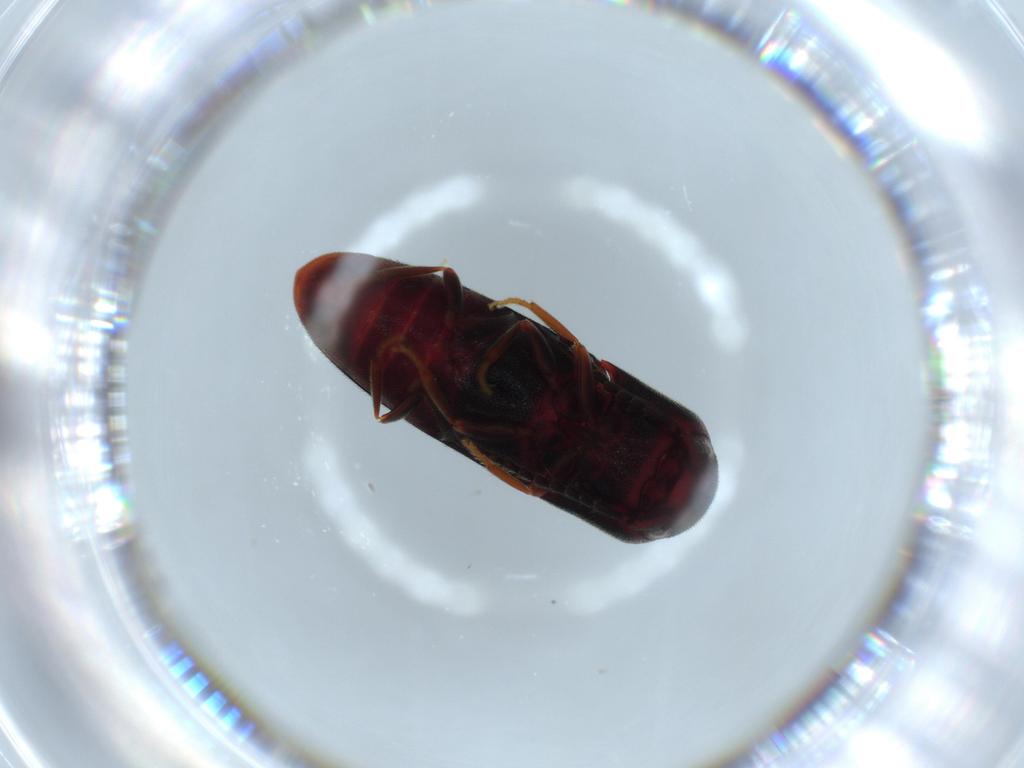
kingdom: Animalia
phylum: Arthropoda
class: Insecta
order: Coleoptera
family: Eucnemidae
